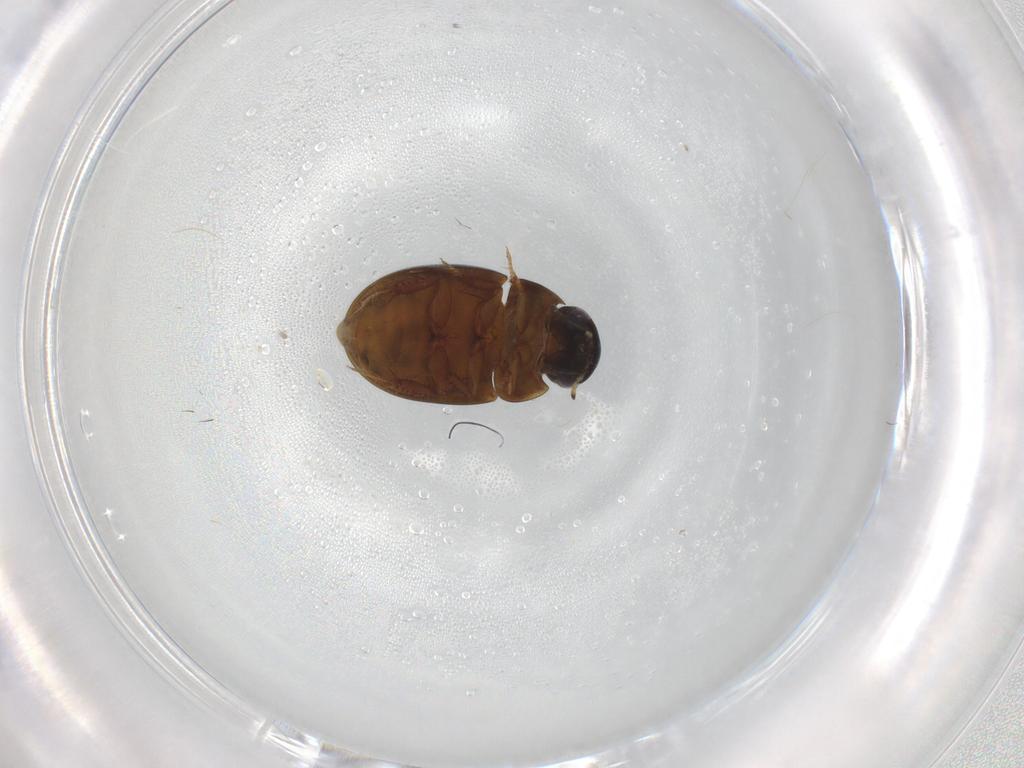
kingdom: Animalia
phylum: Arthropoda
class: Insecta
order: Coleoptera
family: Hydrophilidae
